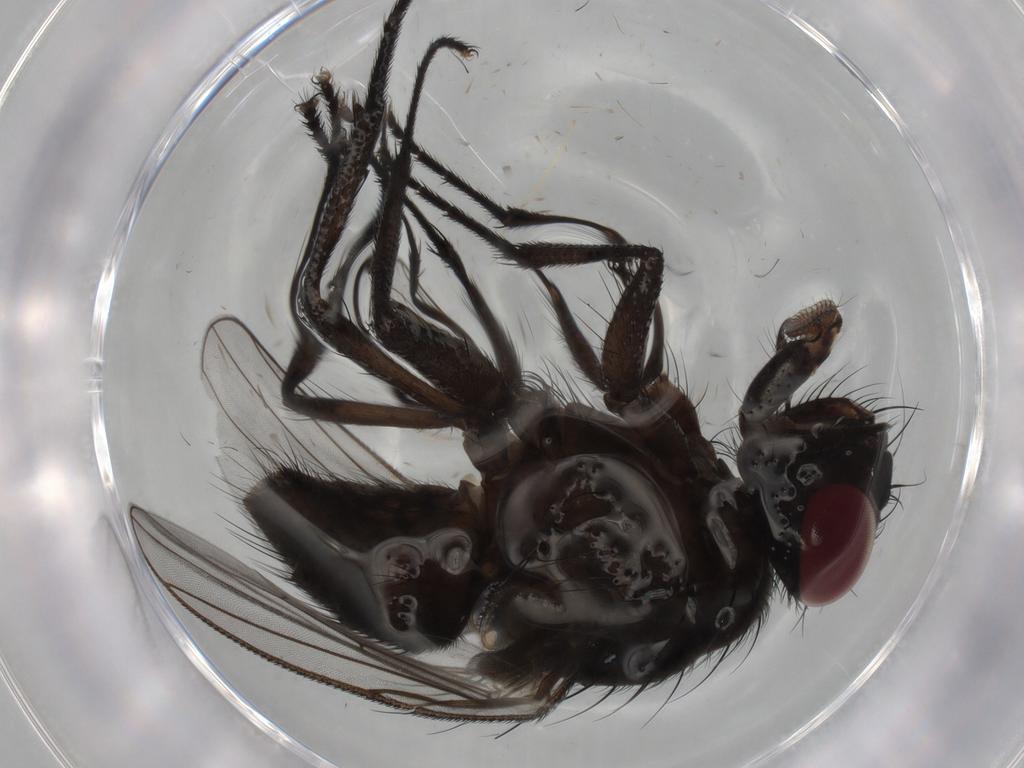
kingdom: Animalia
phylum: Arthropoda
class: Insecta
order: Diptera
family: Muscidae
